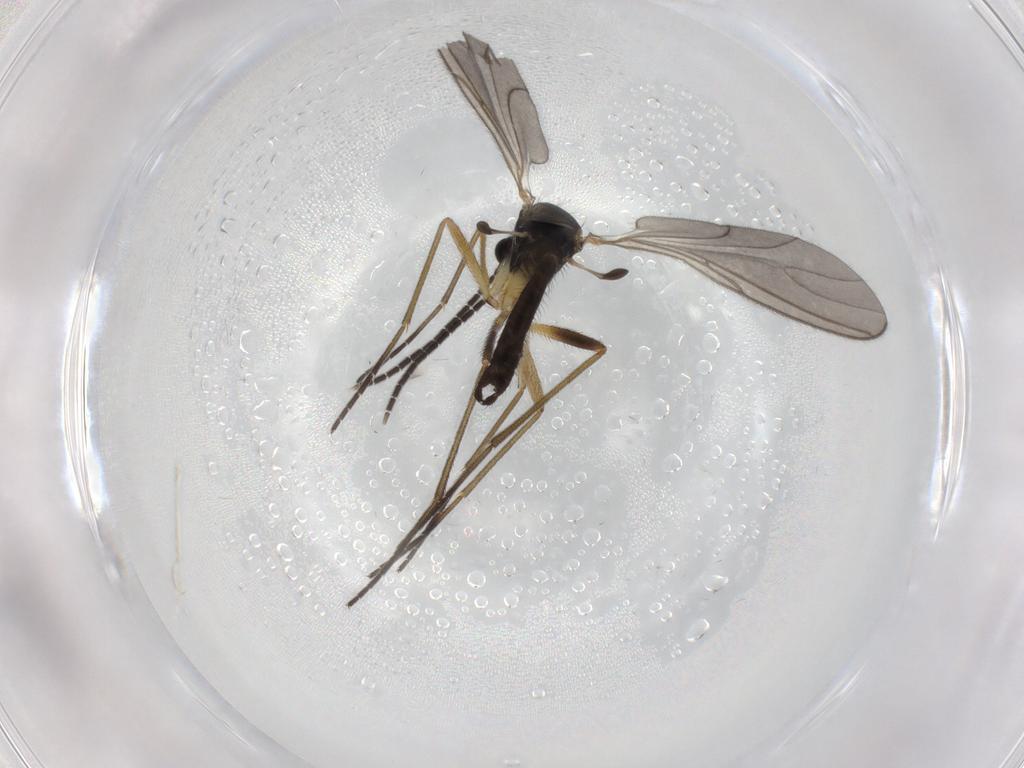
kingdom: Animalia
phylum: Arthropoda
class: Insecta
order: Diptera
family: Sciaridae
